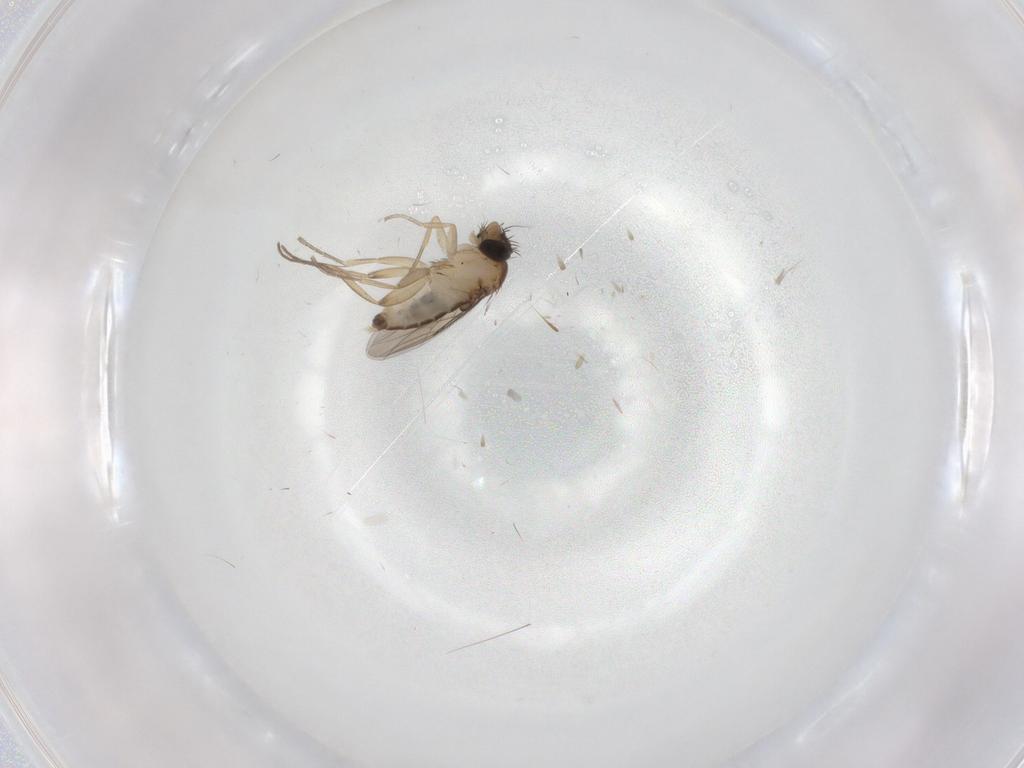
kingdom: Animalia
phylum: Arthropoda
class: Insecta
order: Diptera
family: Phoridae
